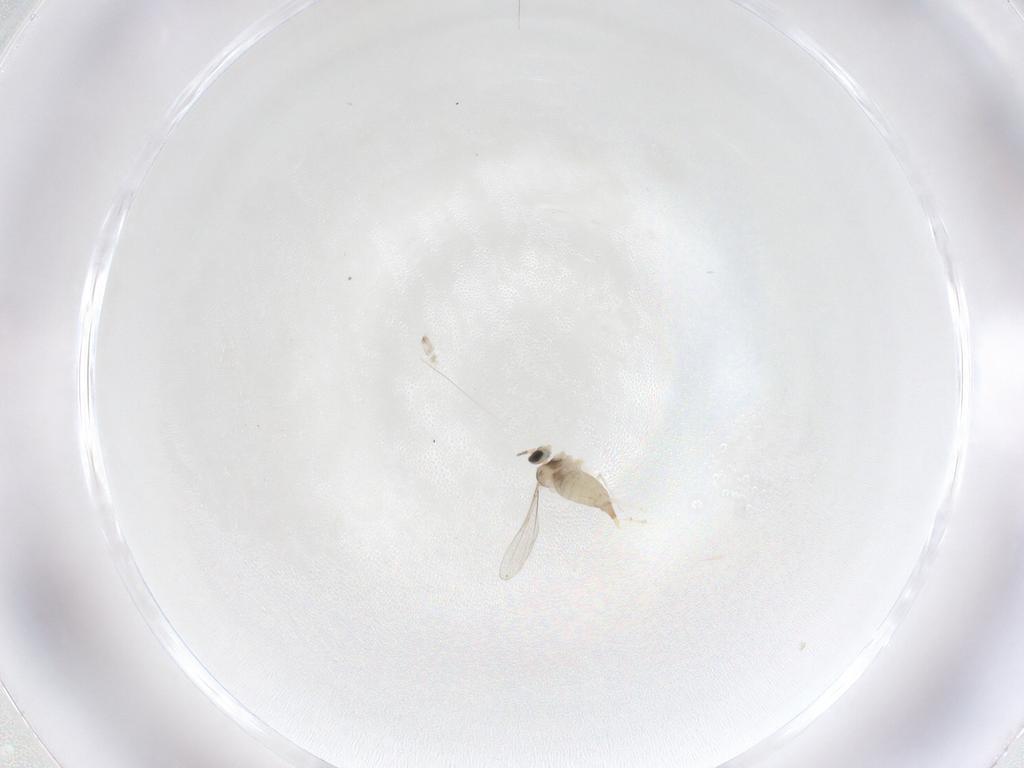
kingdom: Animalia
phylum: Arthropoda
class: Insecta
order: Diptera
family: Cecidomyiidae
